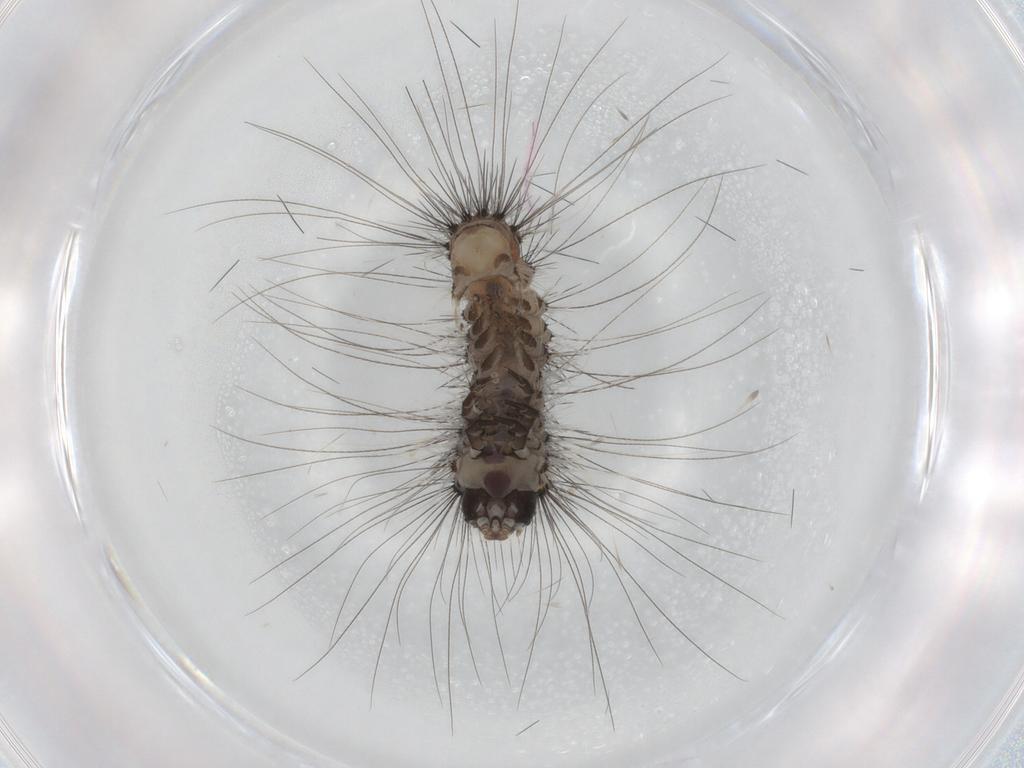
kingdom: Animalia
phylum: Arthropoda
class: Insecta
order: Lepidoptera
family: Erebidae
